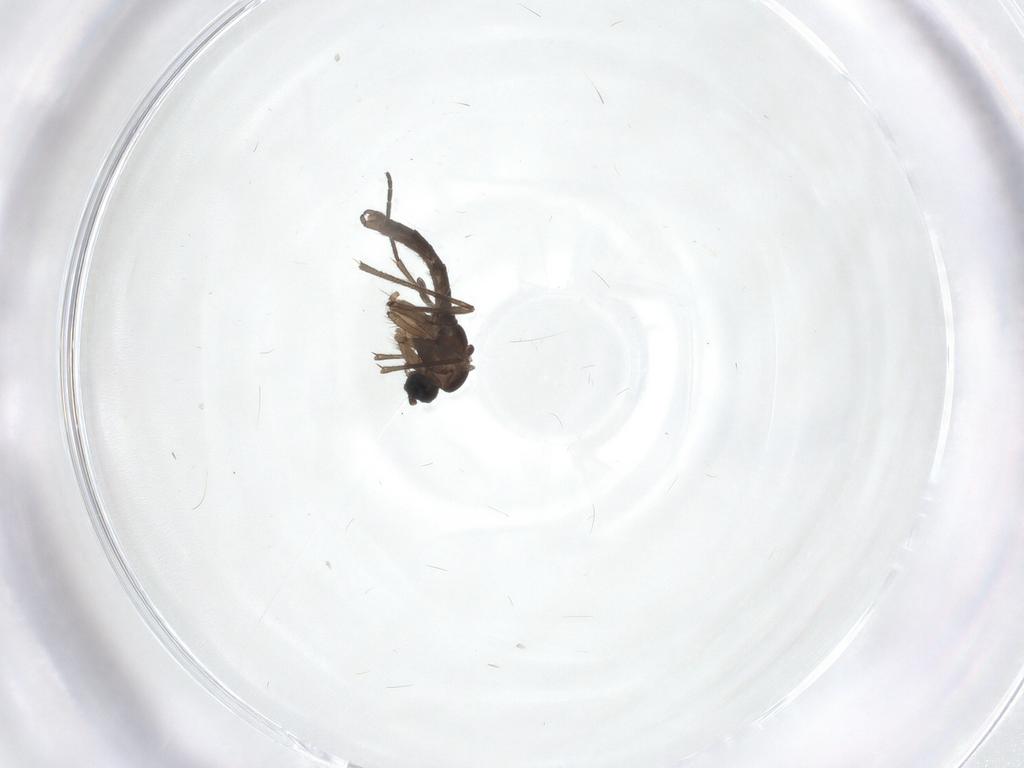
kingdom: Animalia
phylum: Arthropoda
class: Insecta
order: Diptera
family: Sciaridae
